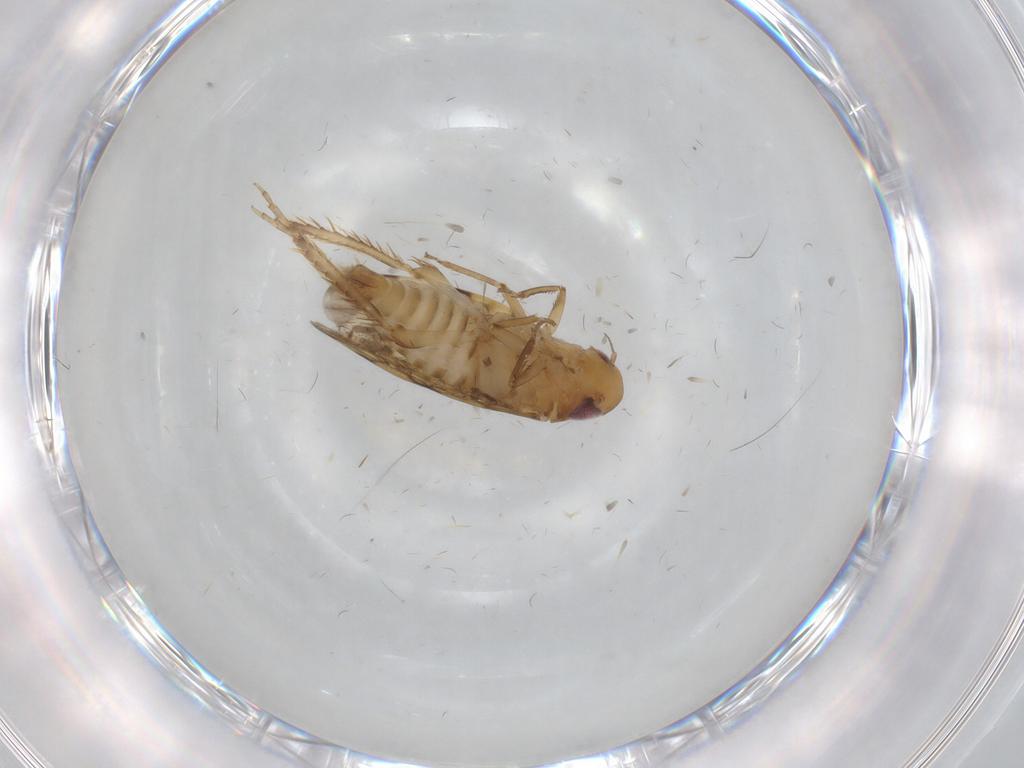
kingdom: Animalia
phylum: Arthropoda
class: Insecta
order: Hemiptera
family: Cicadellidae
